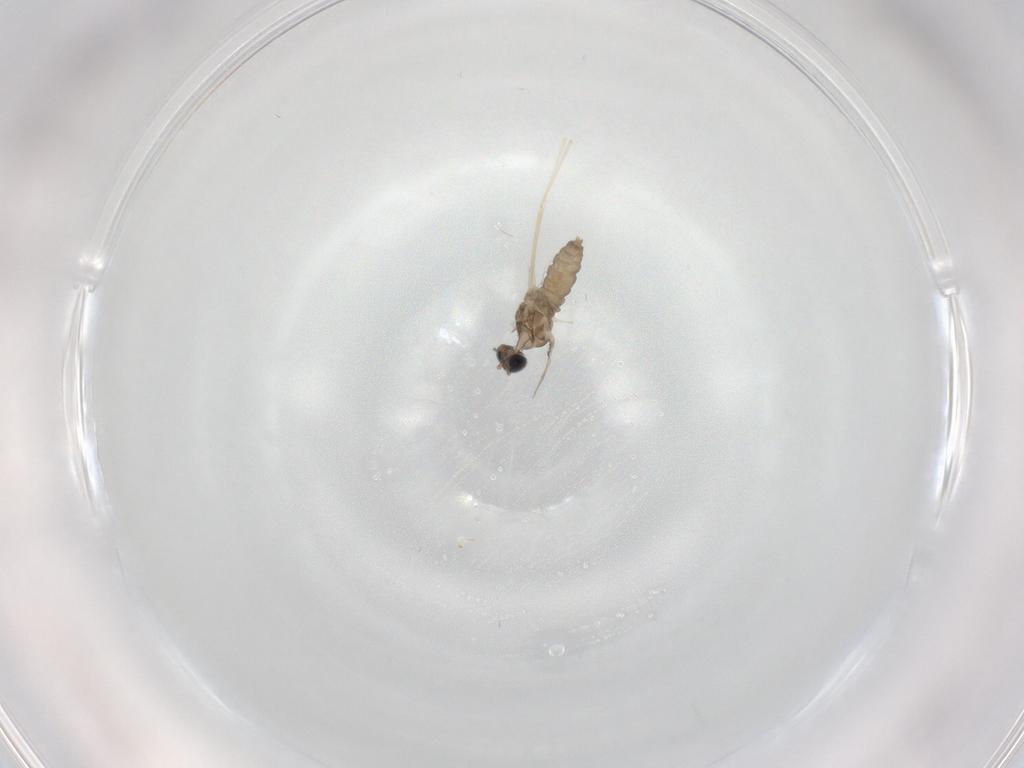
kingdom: Animalia
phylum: Arthropoda
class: Insecta
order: Diptera
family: Cecidomyiidae
